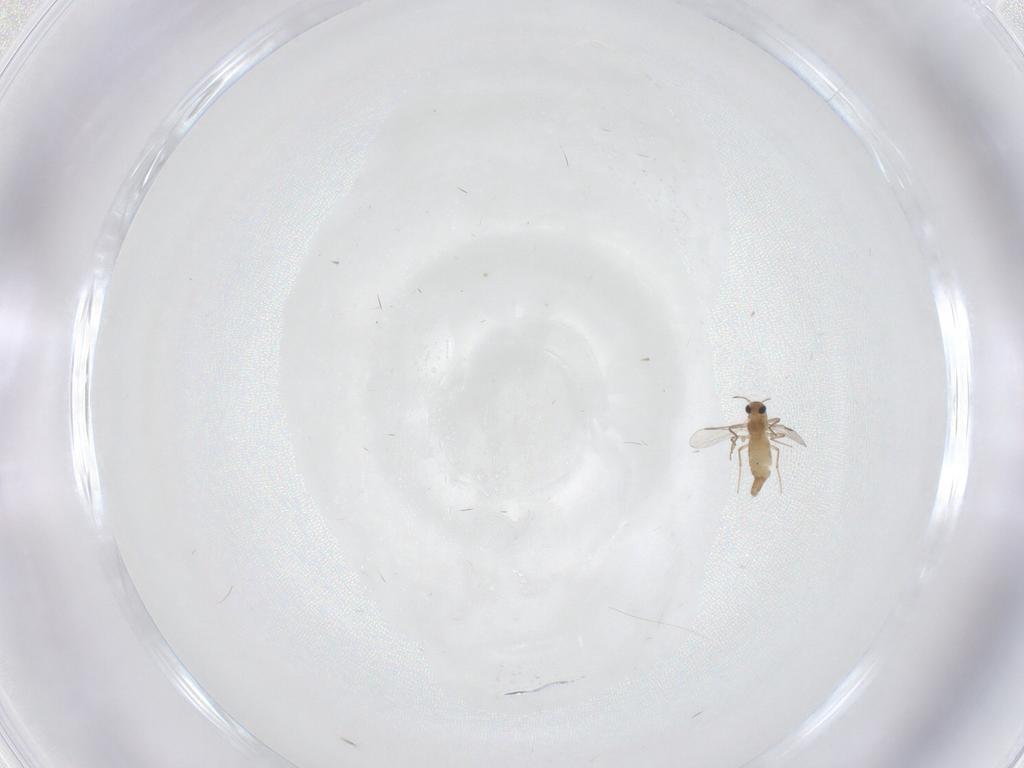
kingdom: Animalia
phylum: Arthropoda
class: Insecta
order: Diptera
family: Chironomidae
